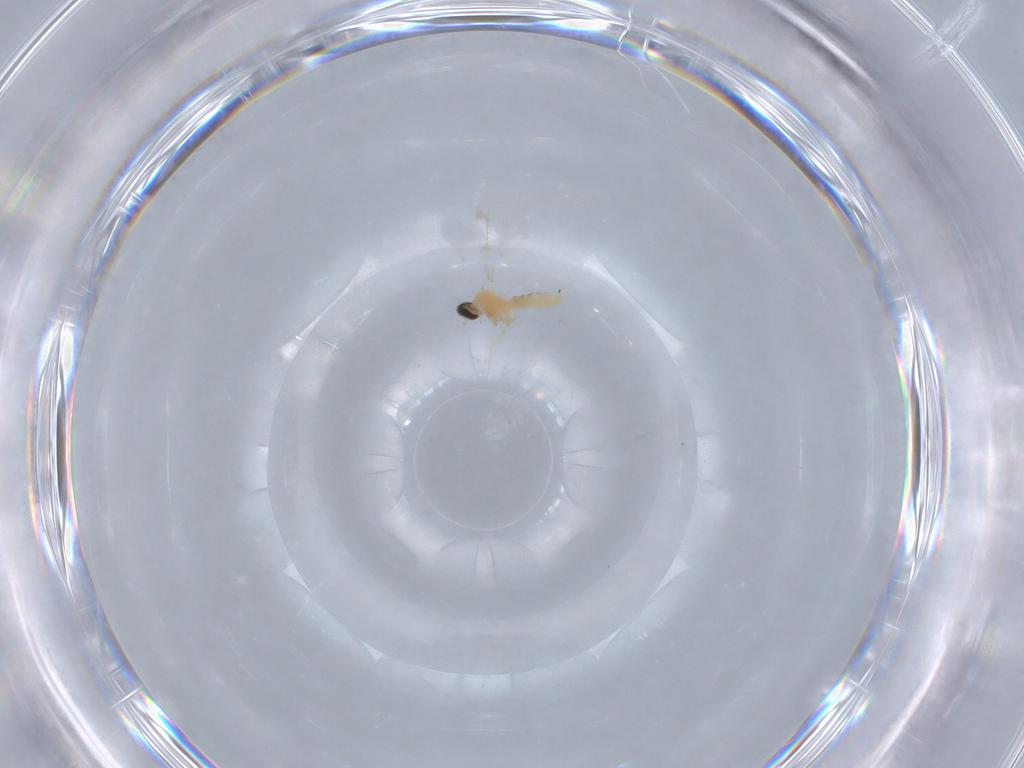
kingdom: Animalia
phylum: Arthropoda
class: Insecta
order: Diptera
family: Cecidomyiidae
